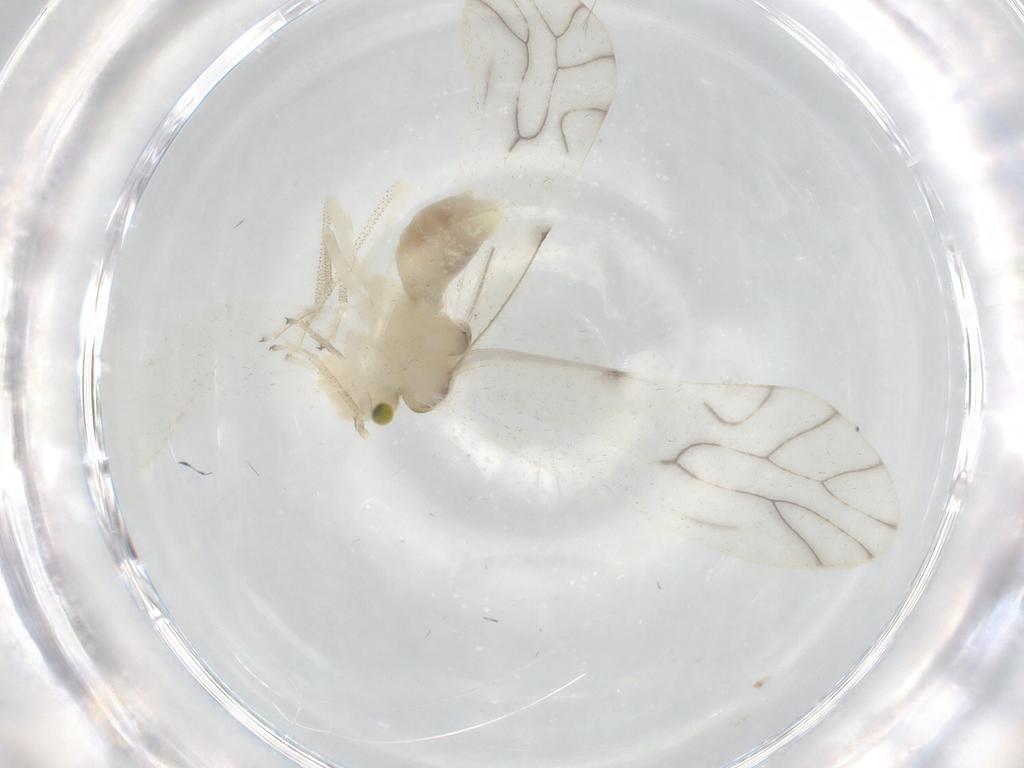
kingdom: Animalia
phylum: Arthropoda
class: Insecta
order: Psocodea
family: Caeciliusidae
